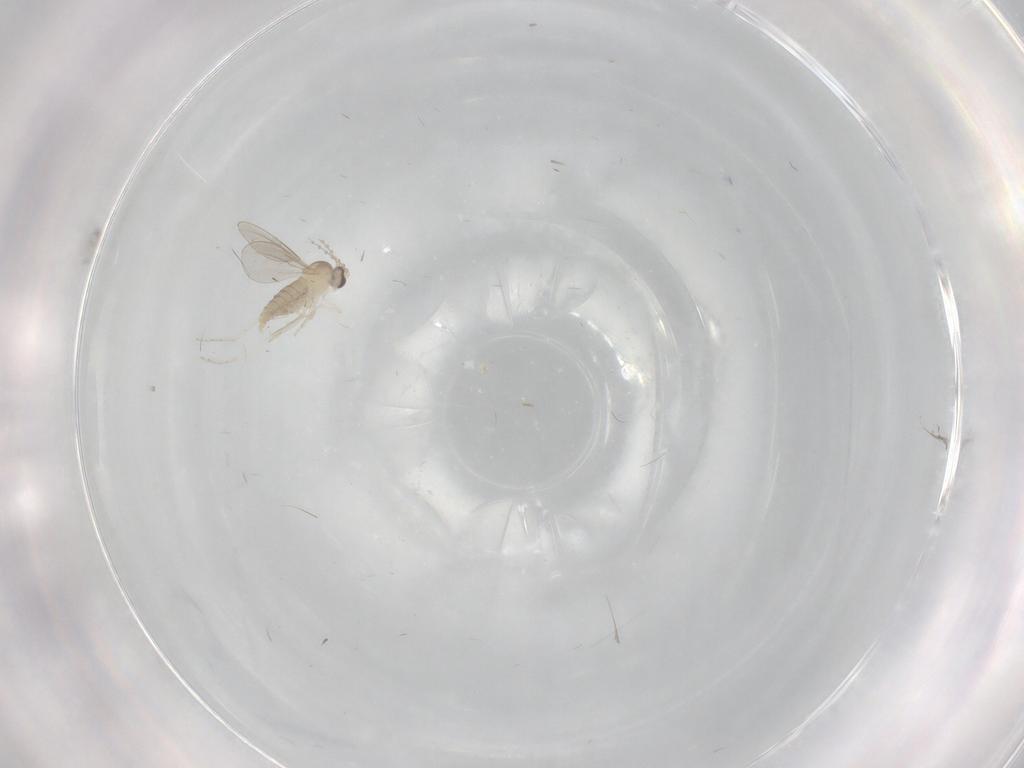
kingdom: Animalia
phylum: Arthropoda
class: Insecta
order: Diptera
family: Cecidomyiidae
